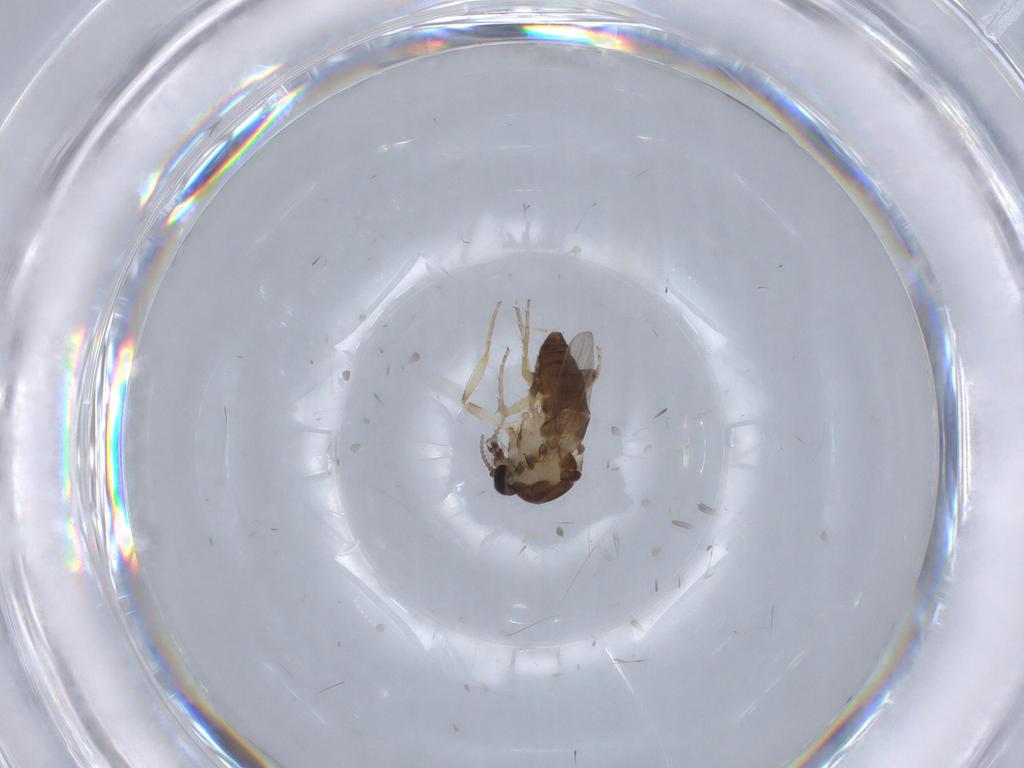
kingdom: Animalia
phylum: Arthropoda
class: Insecta
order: Diptera
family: Ceratopogonidae
